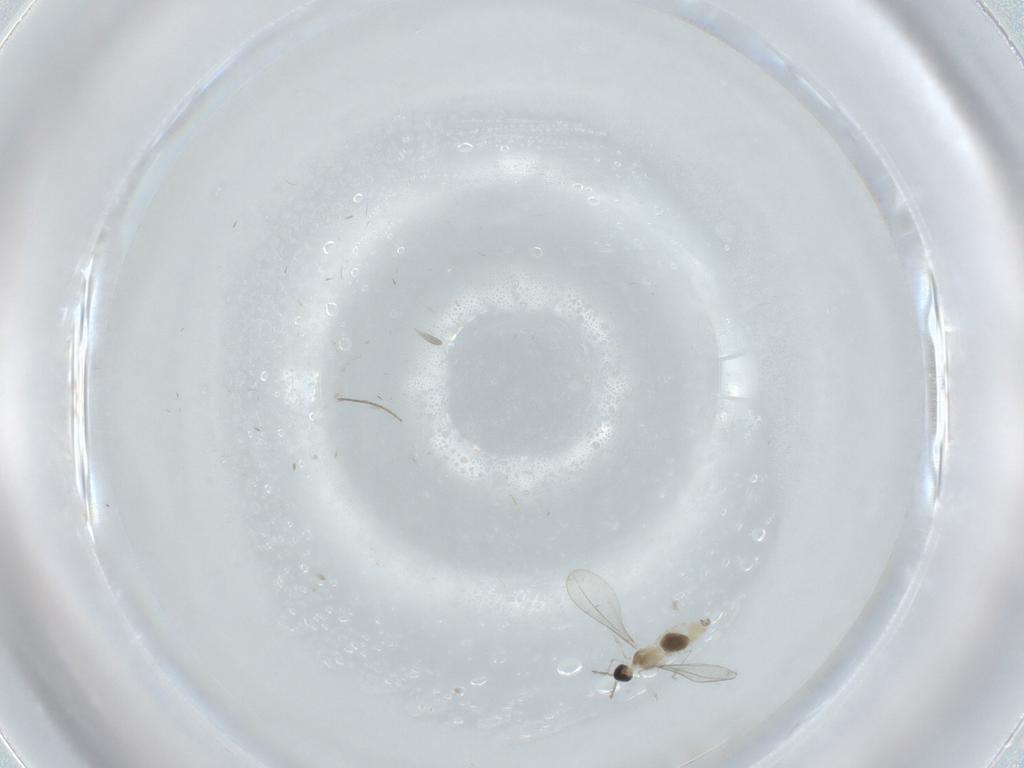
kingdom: Animalia
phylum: Arthropoda
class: Insecta
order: Diptera
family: Cecidomyiidae
